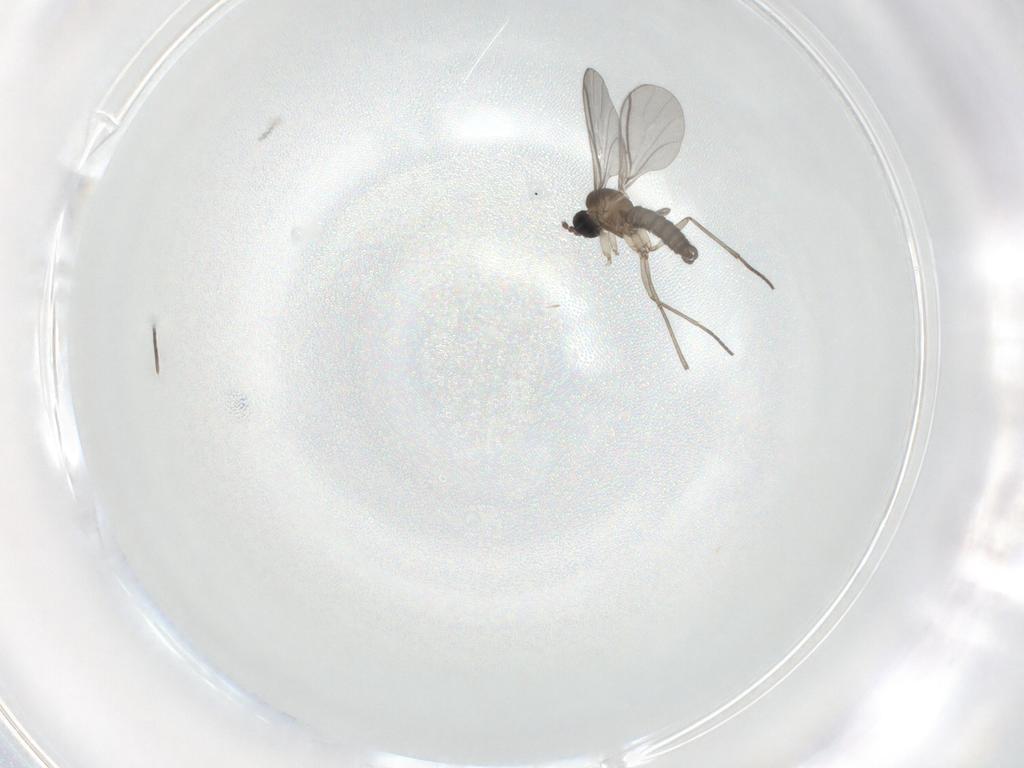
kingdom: Animalia
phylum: Arthropoda
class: Insecta
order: Diptera
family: Sciaridae
